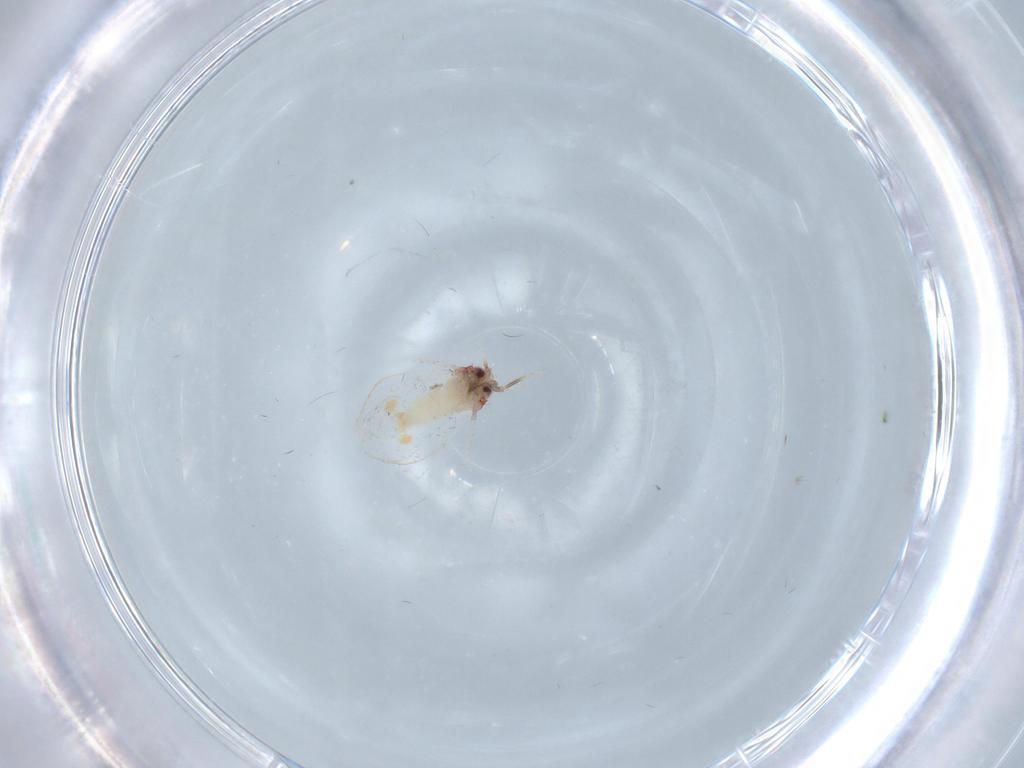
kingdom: Animalia
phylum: Arthropoda
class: Insecta
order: Hemiptera
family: Aleyrodidae
